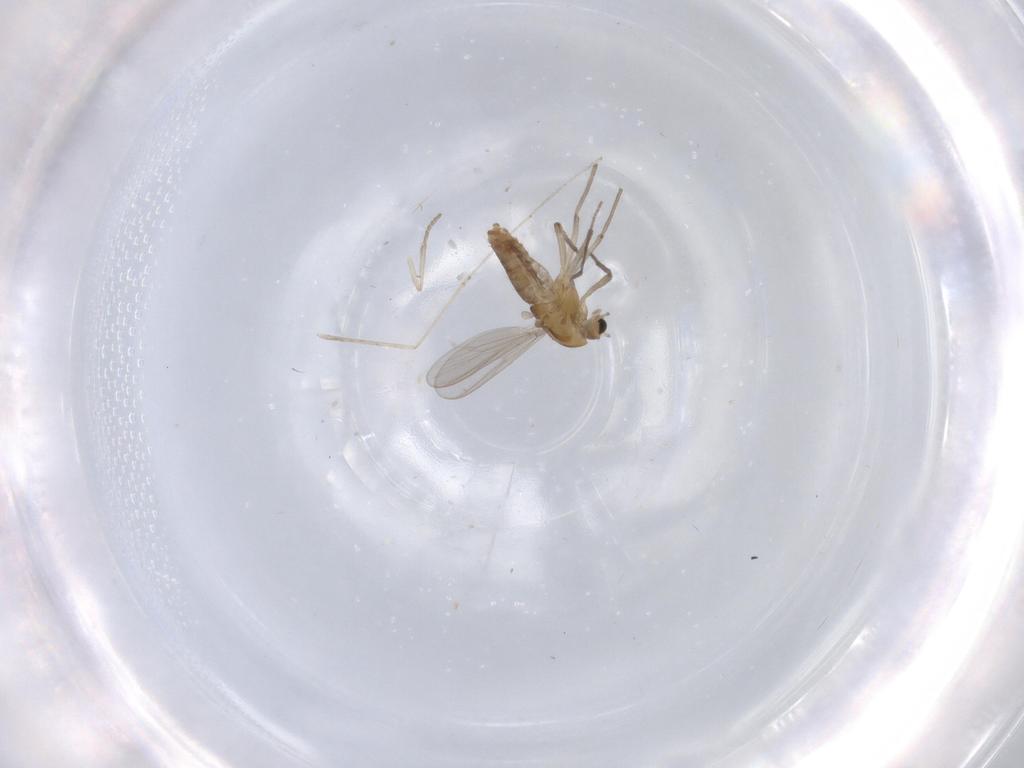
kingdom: Animalia
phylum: Arthropoda
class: Insecta
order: Diptera
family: Chironomidae
